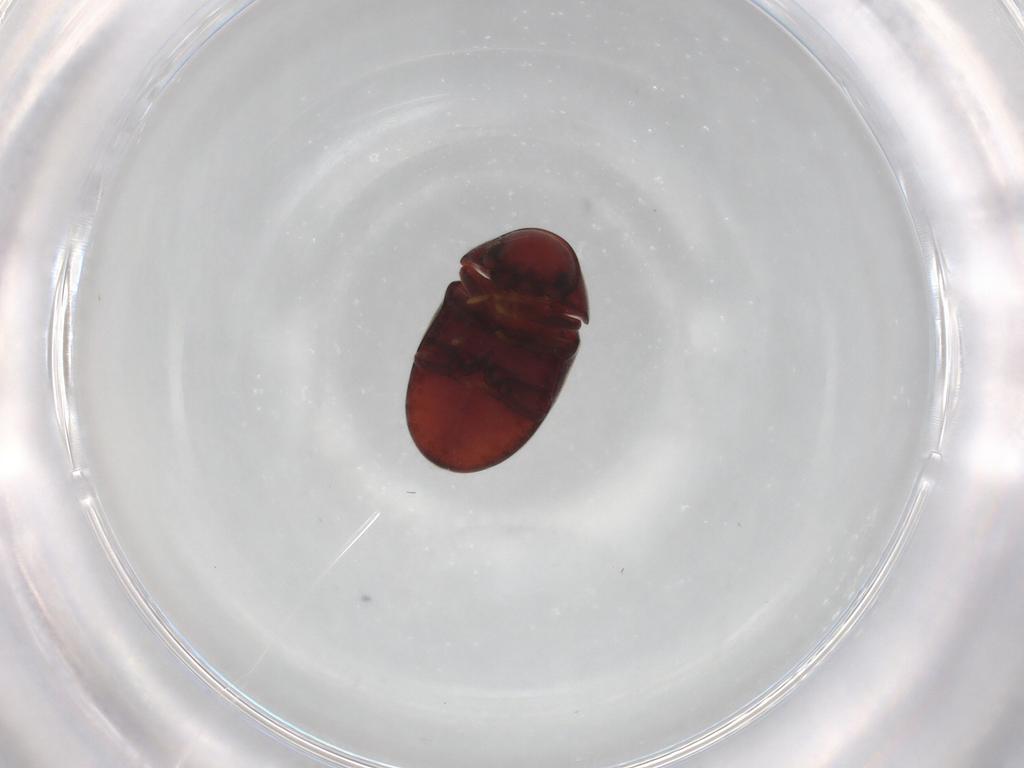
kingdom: Animalia
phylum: Arthropoda
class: Insecta
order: Coleoptera
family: Ptinidae
